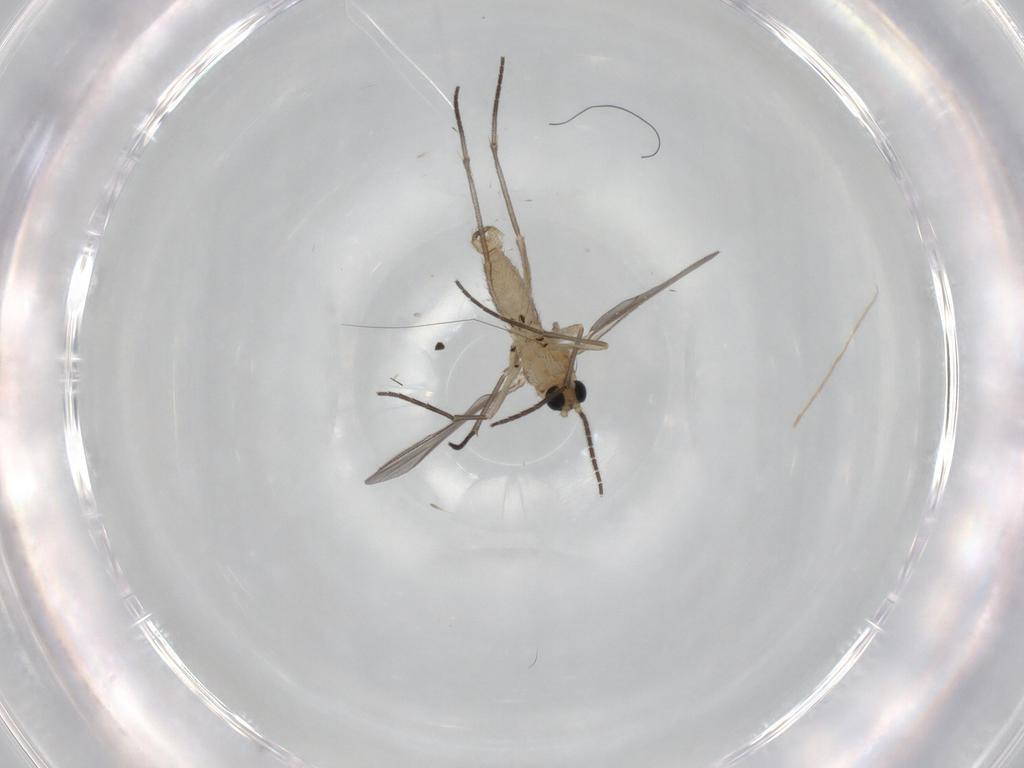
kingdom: Animalia
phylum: Arthropoda
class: Insecta
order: Diptera
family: Sciaridae
